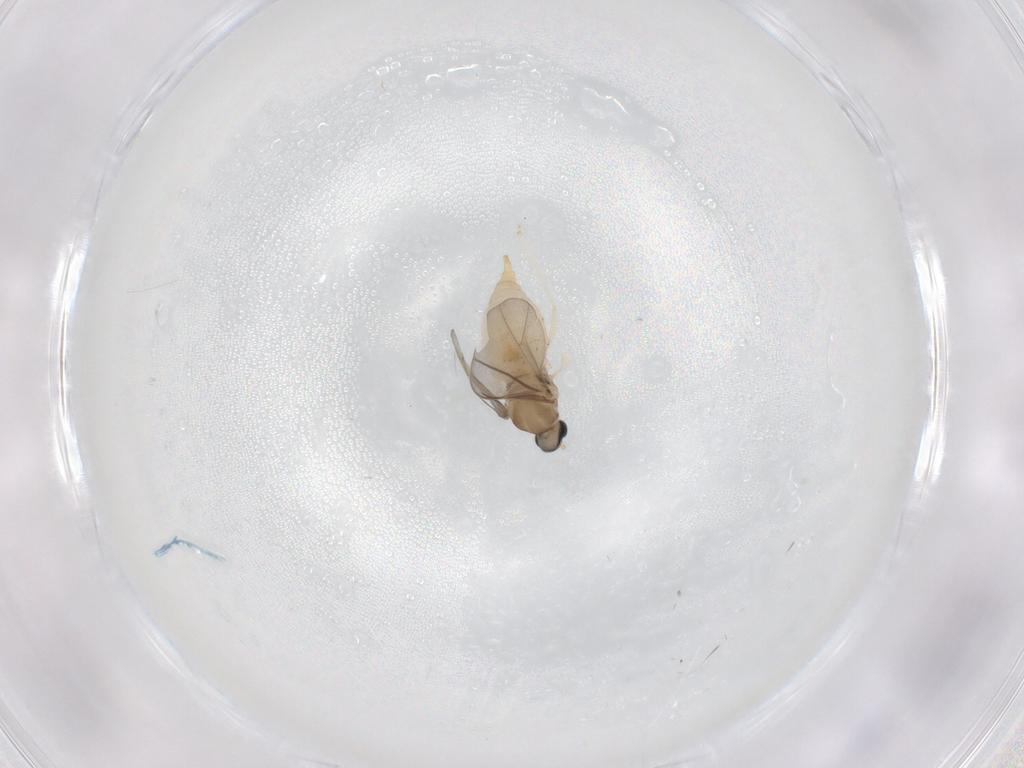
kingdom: Animalia
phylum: Arthropoda
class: Insecta
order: Diptera
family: Cecidomyiidae
